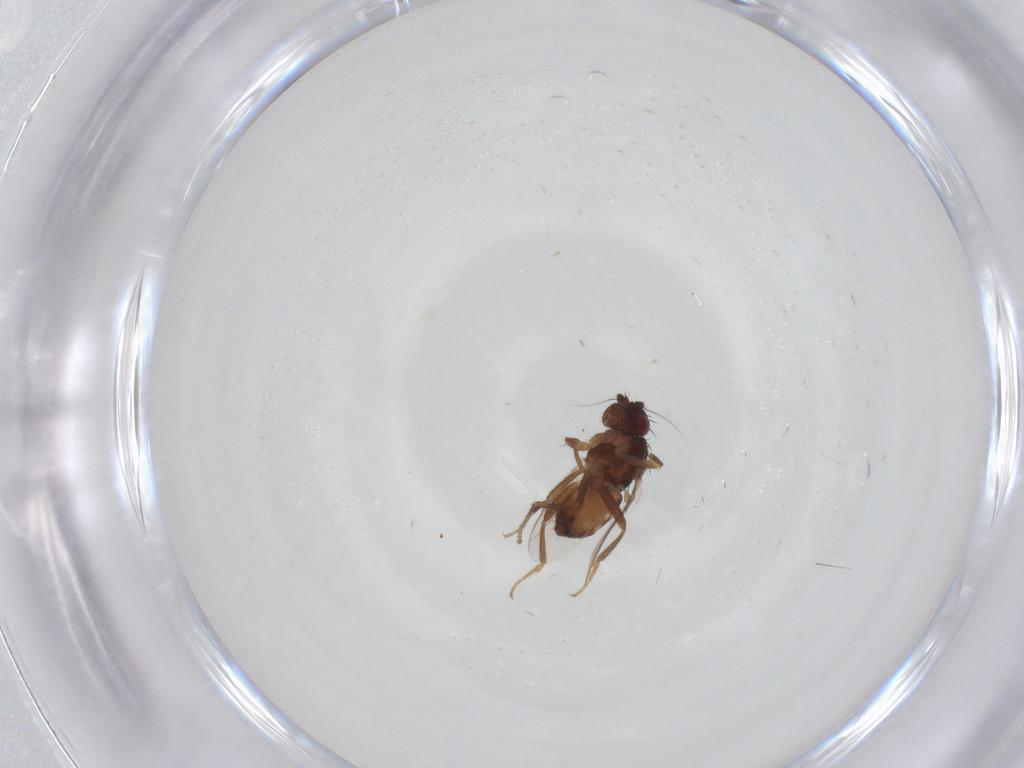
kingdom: Animalia
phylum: Arthropoda
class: Insecta
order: Diptera
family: Sphaeroceridae
